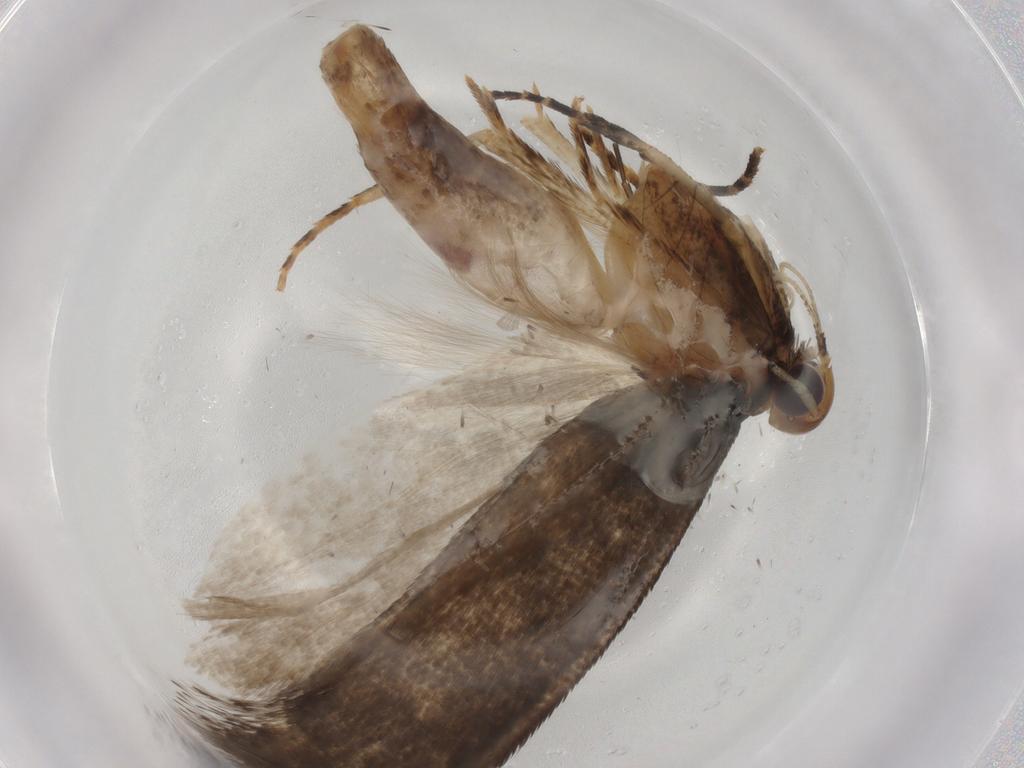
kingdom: Animalia
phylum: Arthropoda
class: Insecta
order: Lepidoptera
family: Gelechiidae
